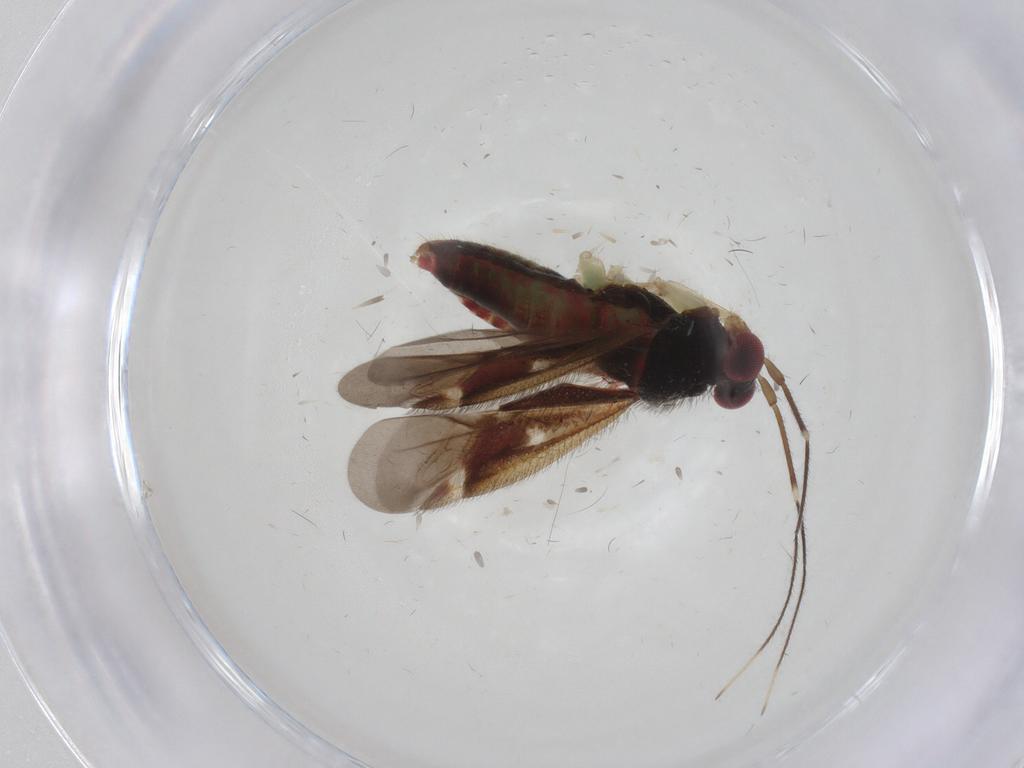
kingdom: Animalia
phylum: Arthropoda
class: Insecta
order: Hemiptera
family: Miridae
